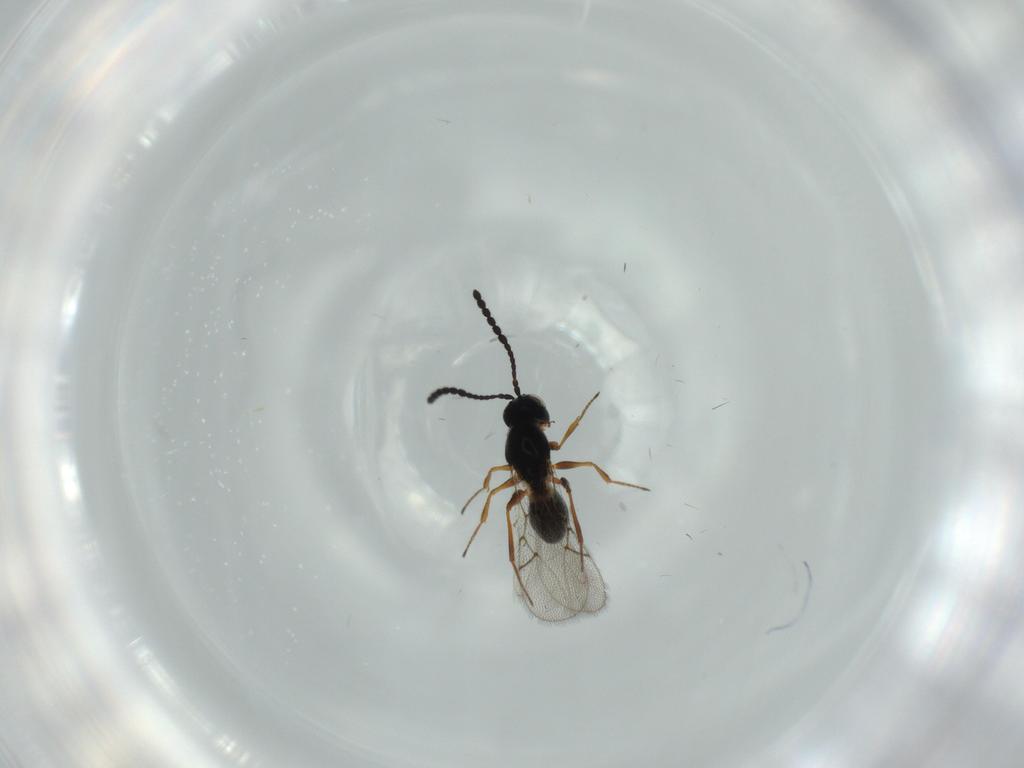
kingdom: Animalia
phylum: Arthropoda
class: Insecta
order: Hymenoptera
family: Figitidae
